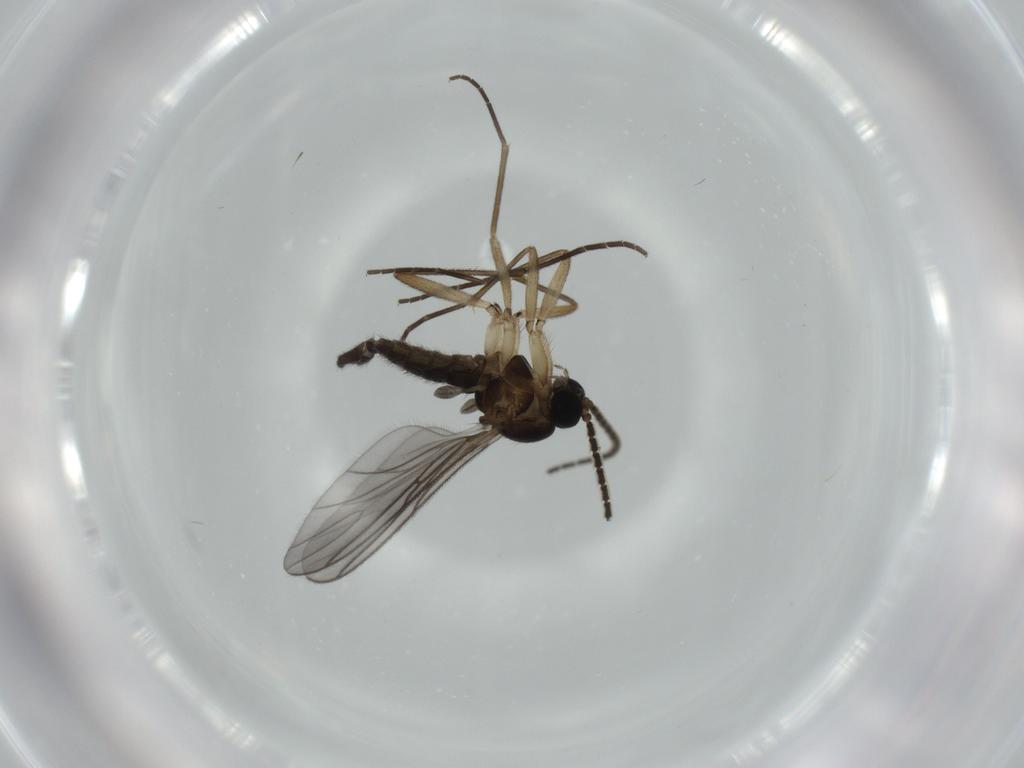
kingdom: Animalia
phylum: Arthropoda
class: Insecta
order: Diptera
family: Sciaridae
